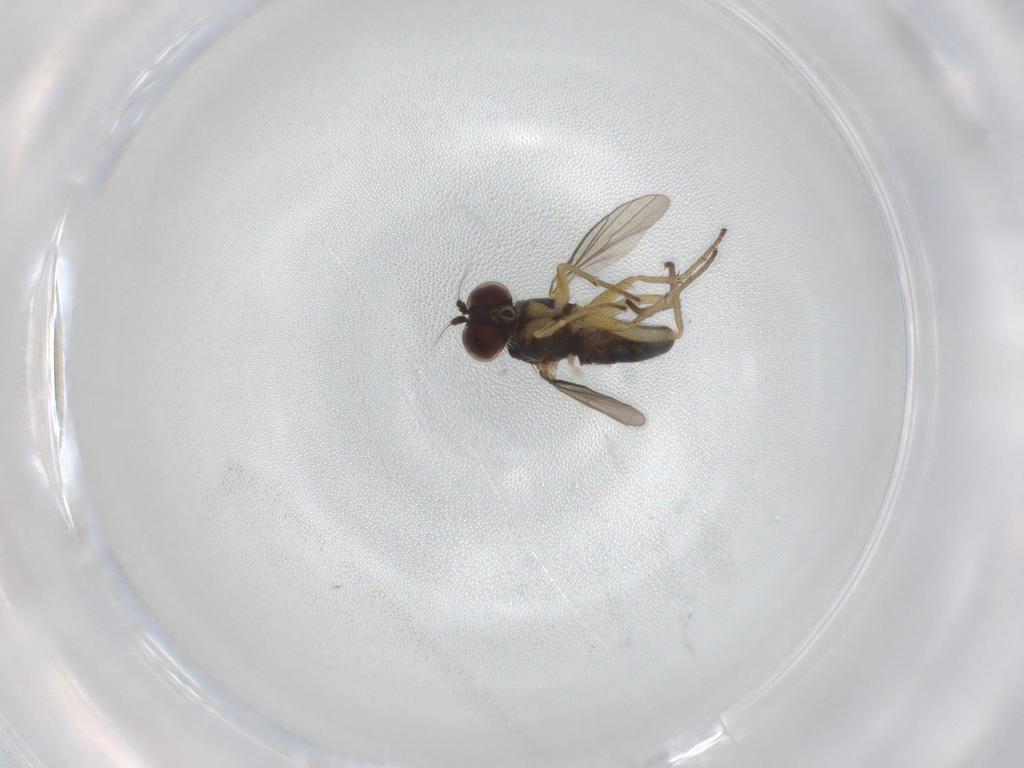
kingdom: Animalia
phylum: Arthropoda
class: Insecta
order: Diptera
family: Dolichopodidae
